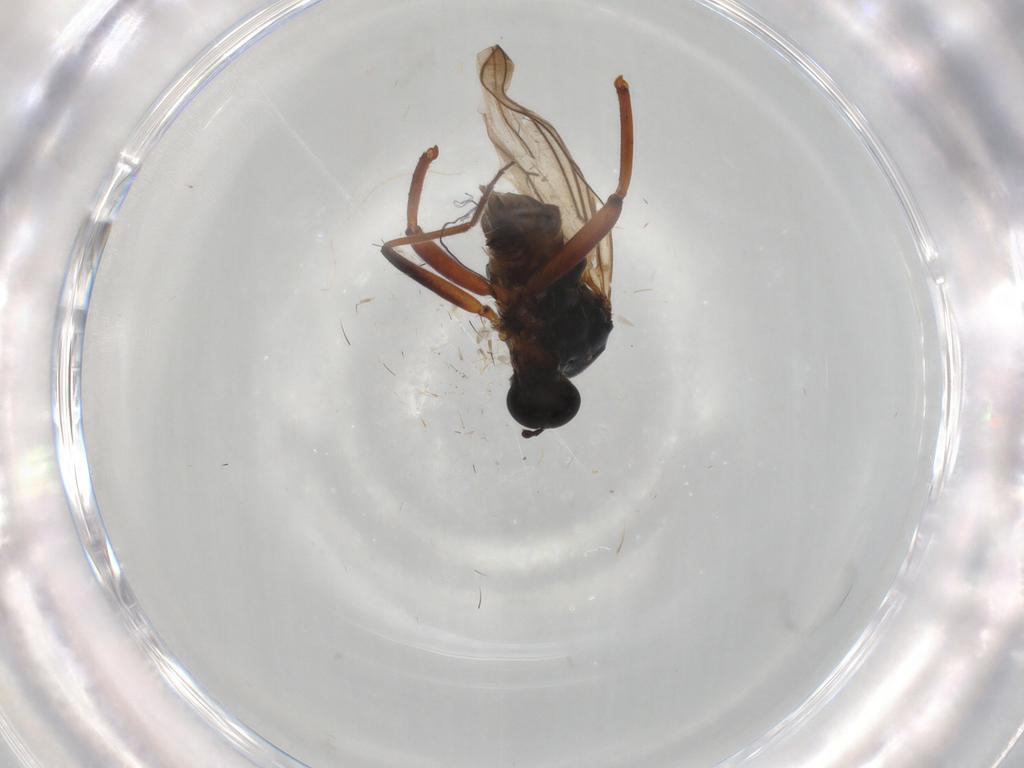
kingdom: Animalia
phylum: Arthropoda
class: Insecta
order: Diptera
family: Hybotidae
